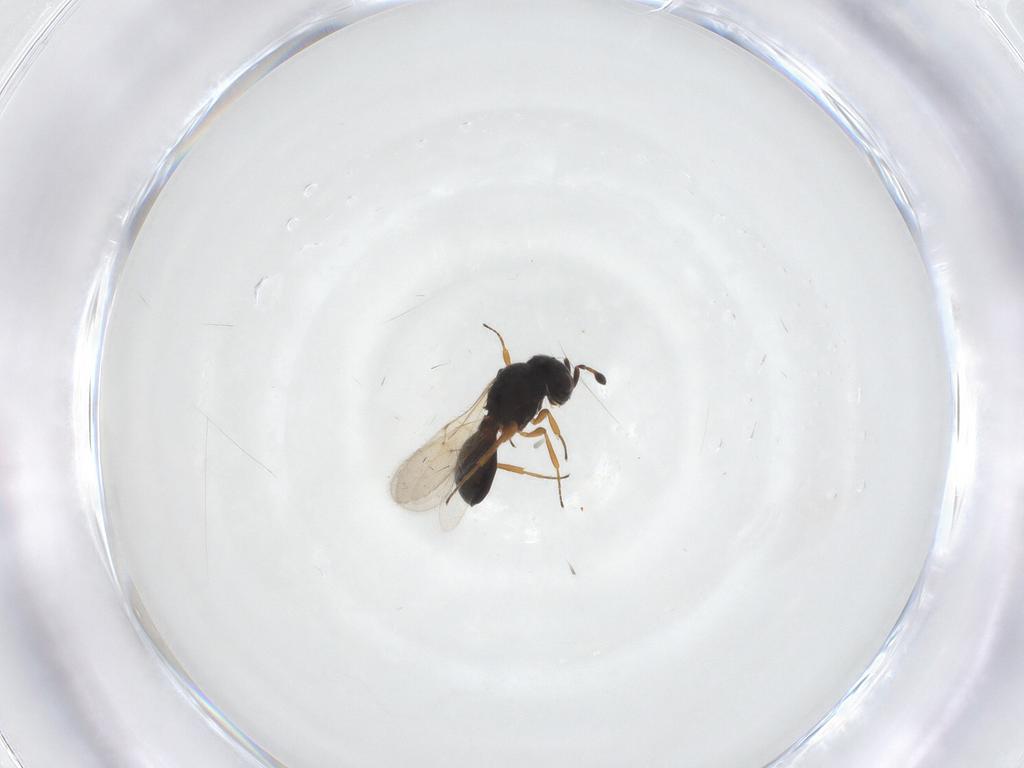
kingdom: Animalia
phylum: Arthropoda
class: Insecta
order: Hymenoptera
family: Scelionidae
